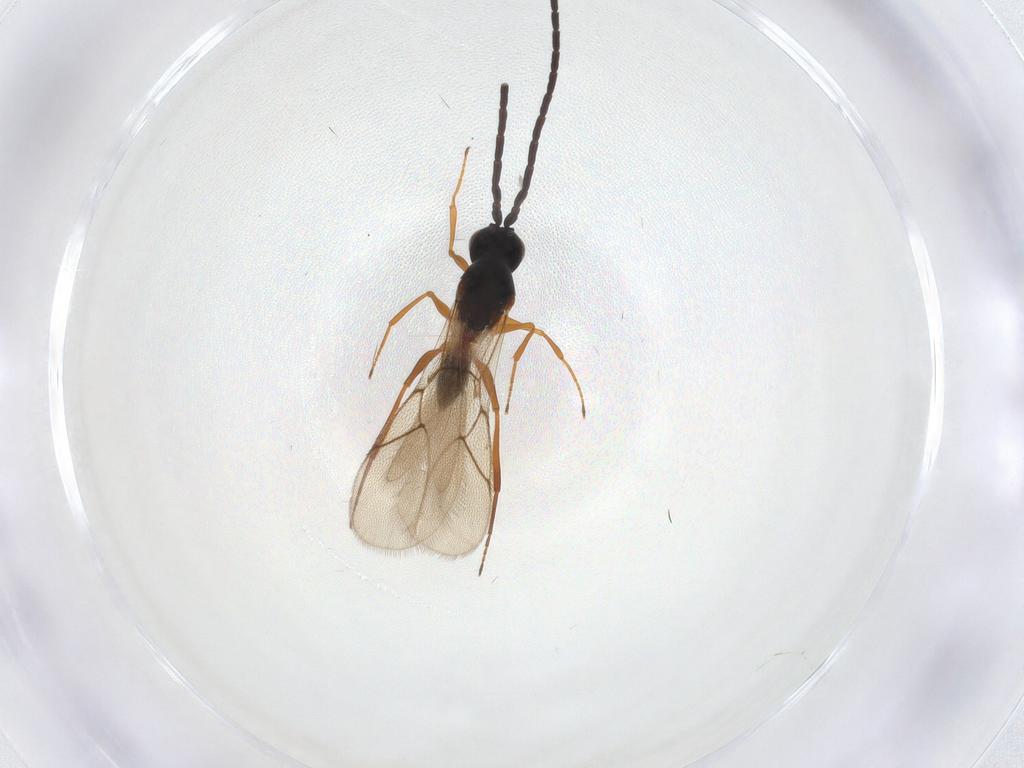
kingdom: Animalia
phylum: Arthropoda
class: Insecta
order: Hymenoptera
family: Figitidae
